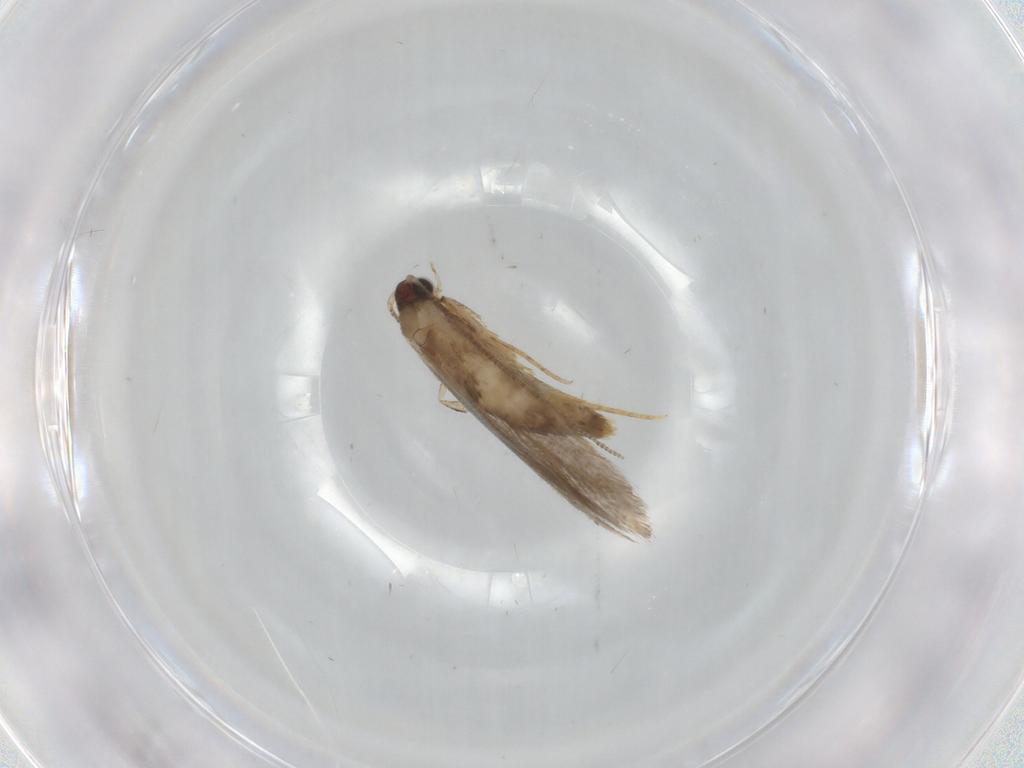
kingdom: Animalia
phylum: Arthropoda
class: Insecta
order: Lepidoptera
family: Tineidae
